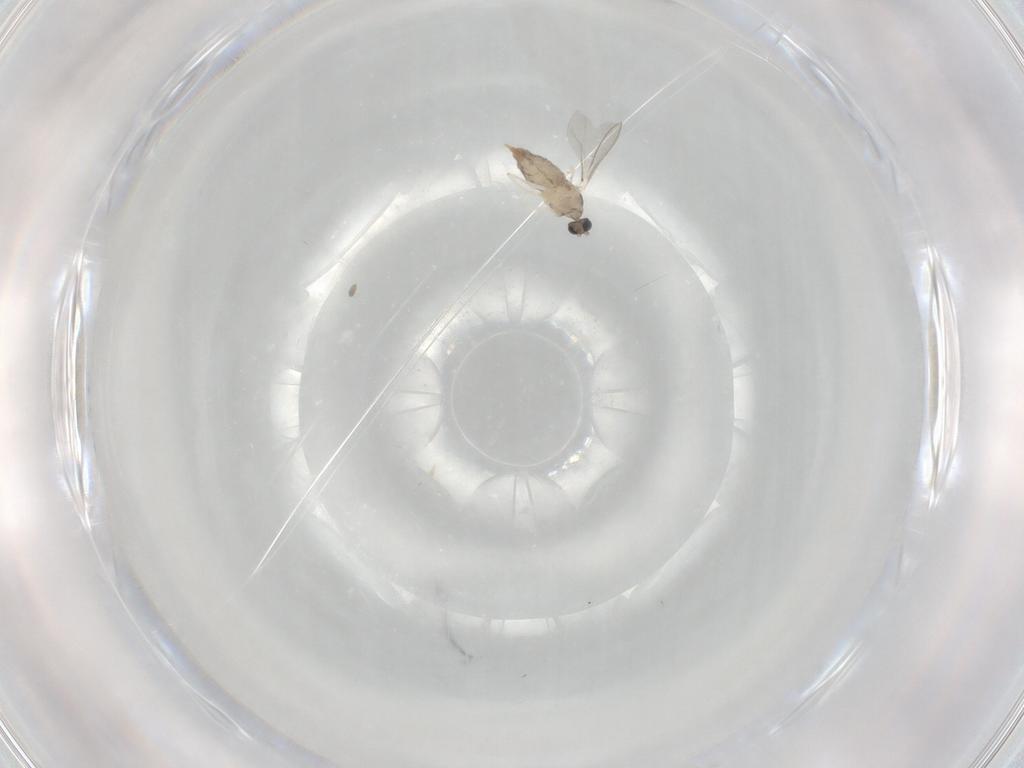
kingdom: Animalia
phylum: Arthropoda
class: Insecta
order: Diptera
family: Cecidomyiidae
